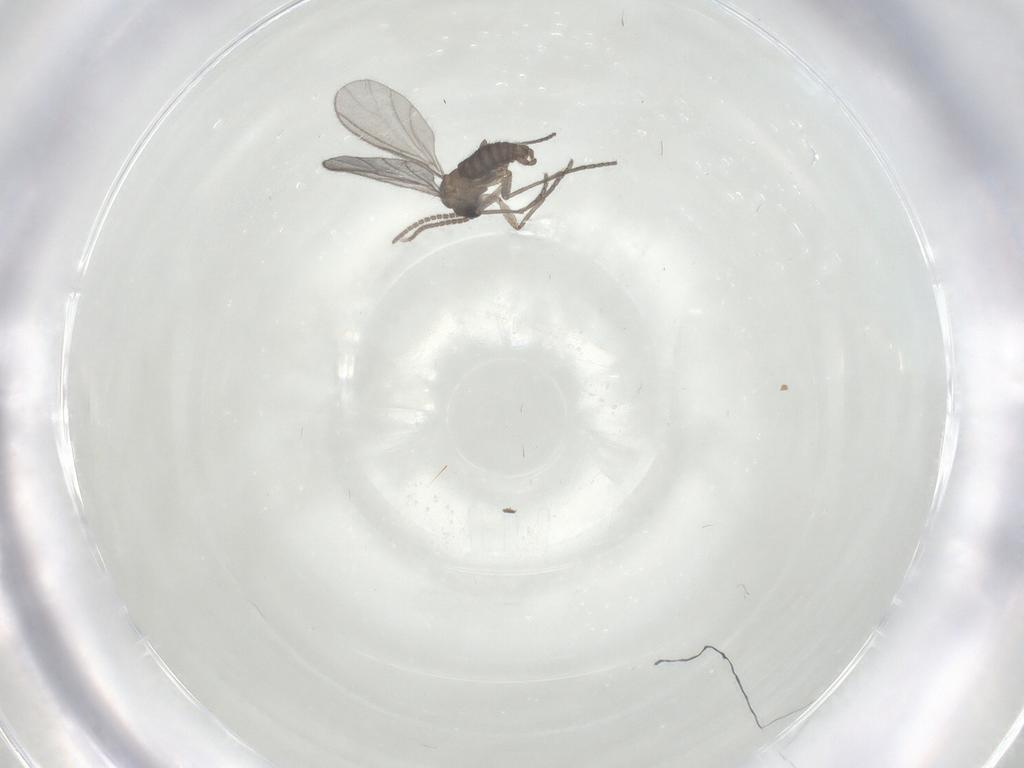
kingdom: Animalia
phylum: Arthropoda
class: Insecta
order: Diptera
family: Sciaridae
